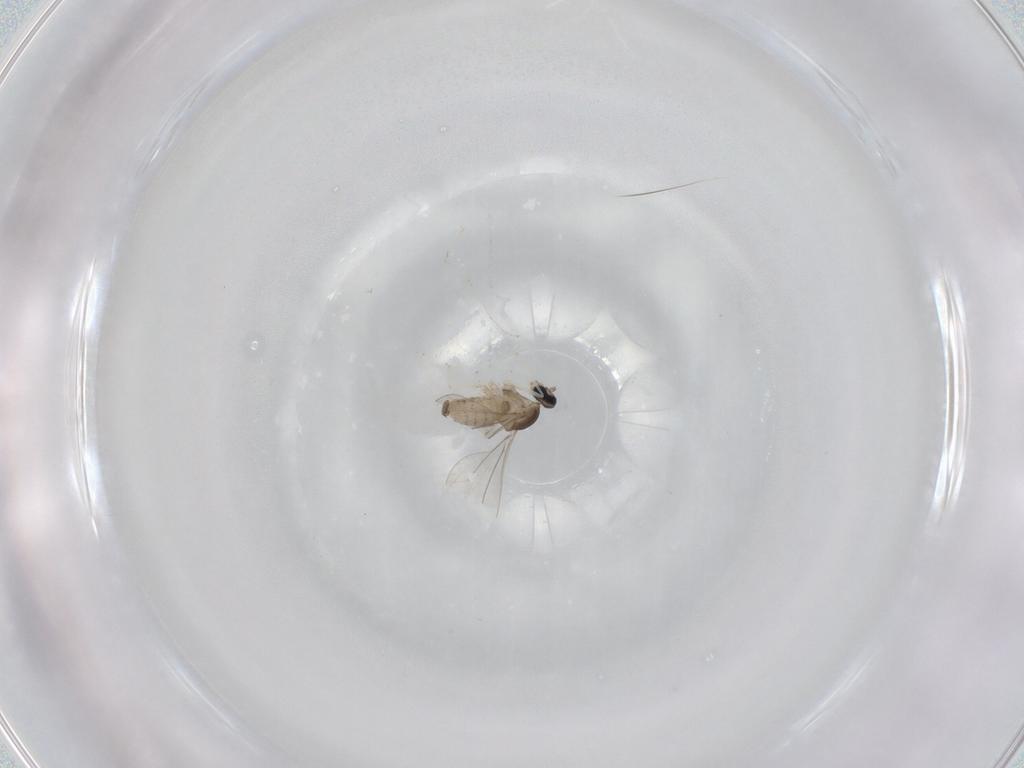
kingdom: Animalia
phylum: Arthropoda
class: Insecta
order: Diptera
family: Cecidomyiidae
